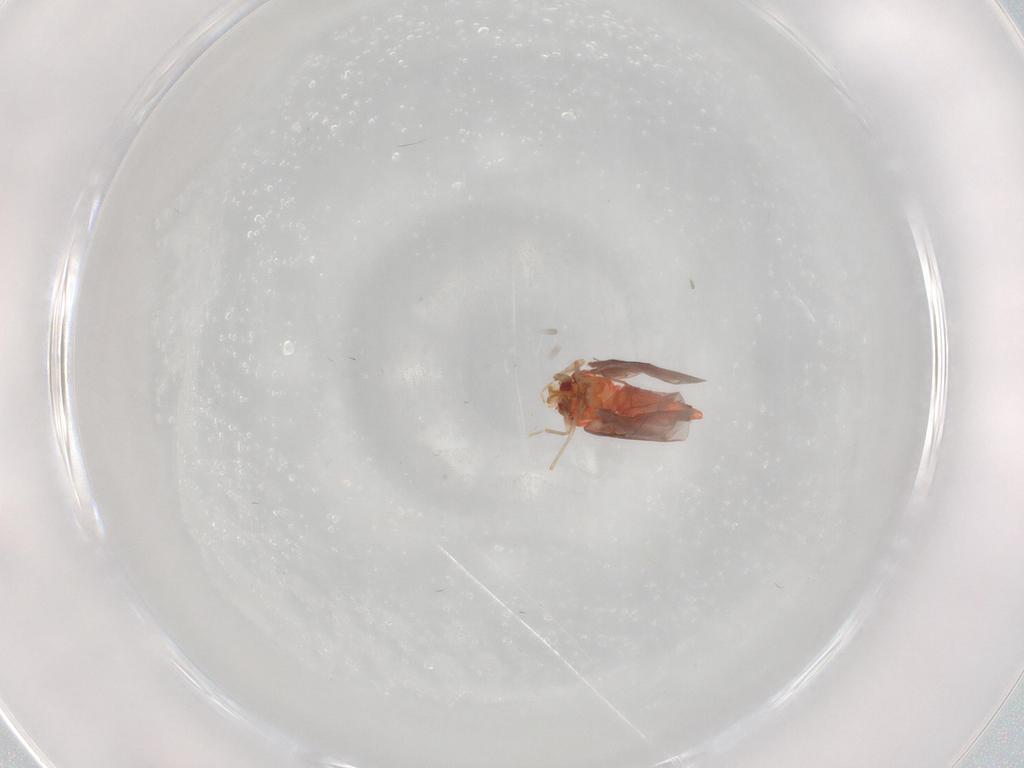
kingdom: Animalia
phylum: Arthropoda
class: Insecta
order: Hemiptera
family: Aleyrodidae
